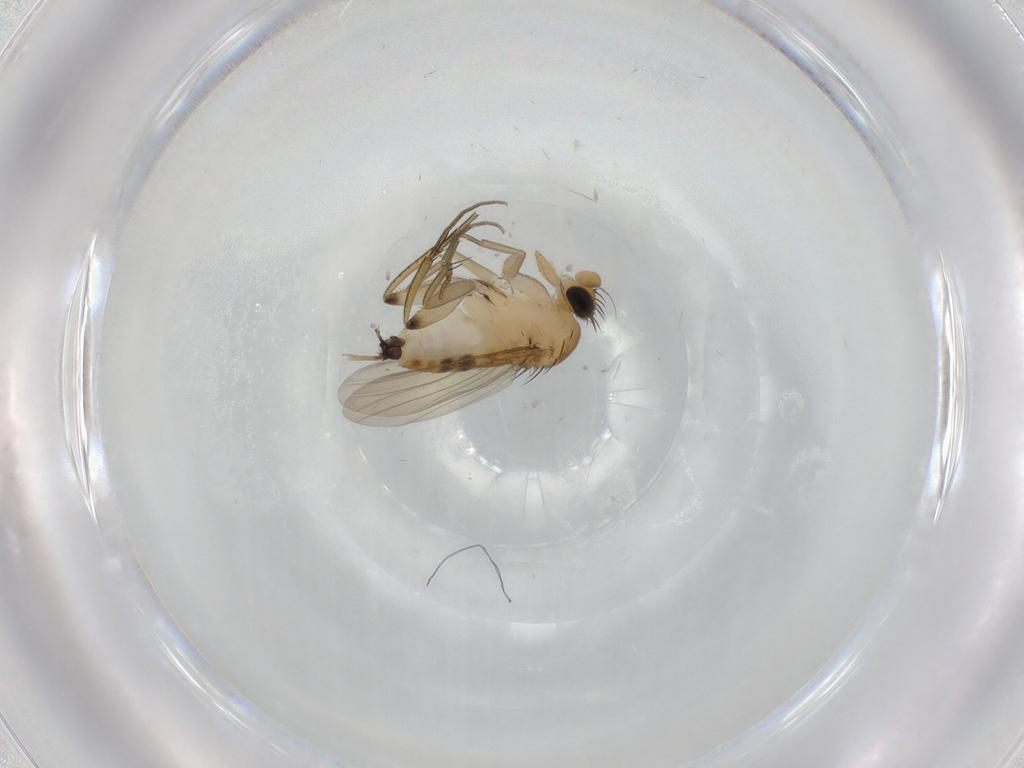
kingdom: Animalia
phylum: Arthropoda
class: Insecta
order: Diptera
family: Phoridae
